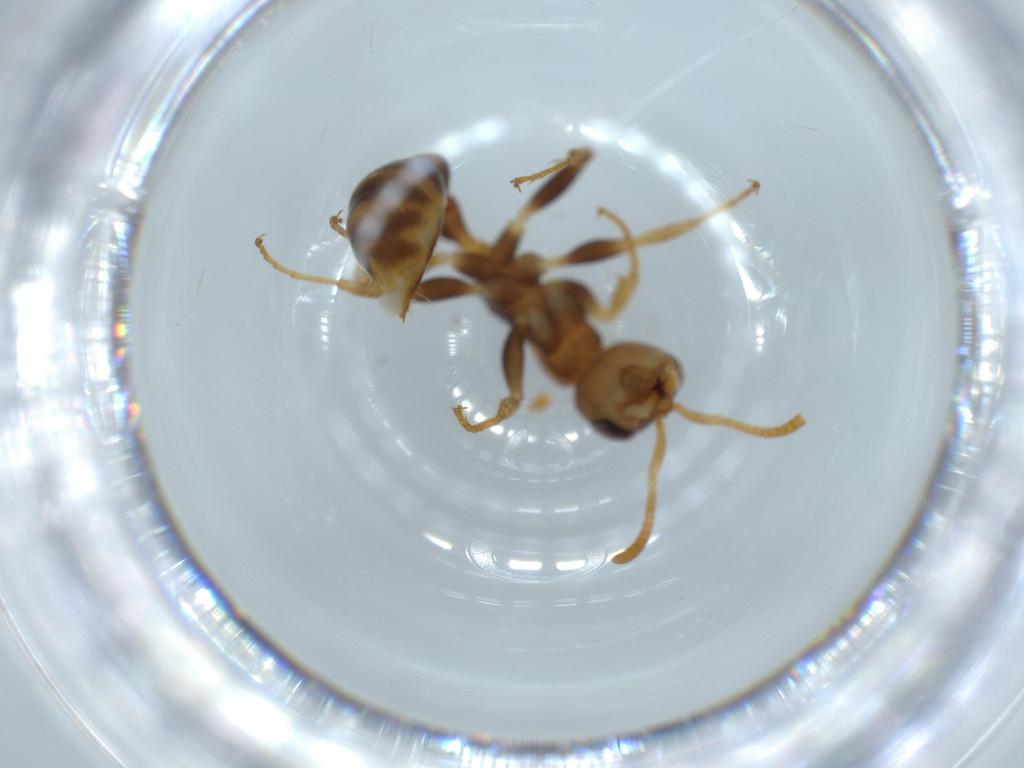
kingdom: Animalia
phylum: Arthropoda
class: Insecta
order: Hymenoptera
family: Formicidae
